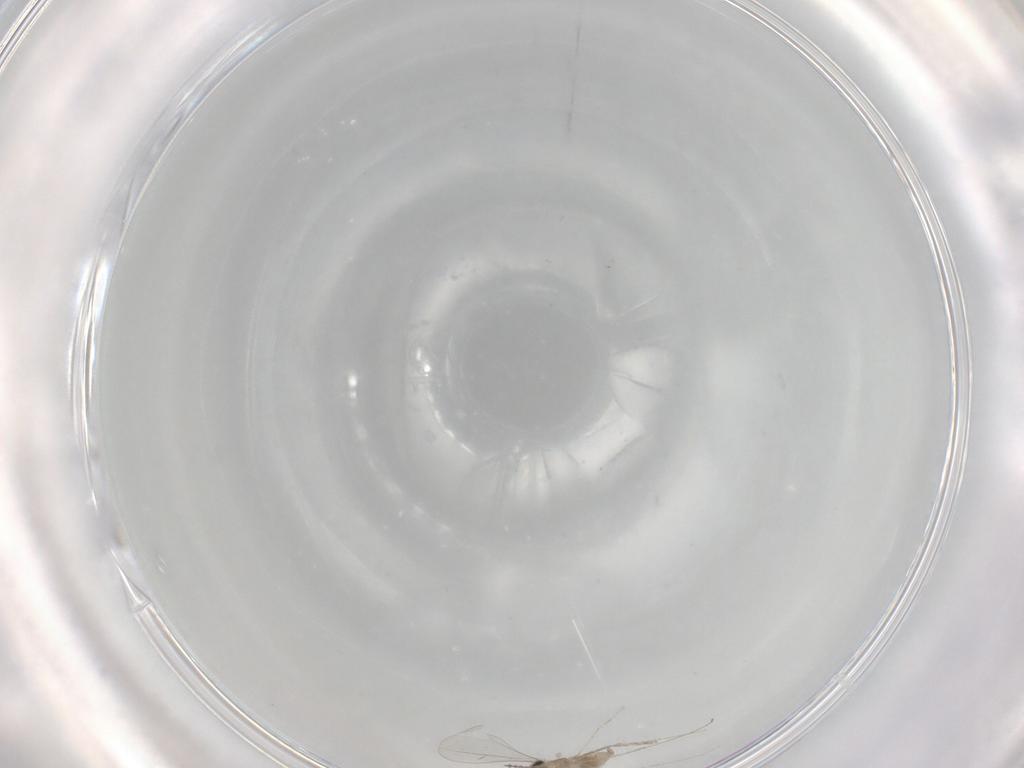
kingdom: Animalia
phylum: Arthropoda
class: Insecta
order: Diptera
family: Cecidomyiidae
